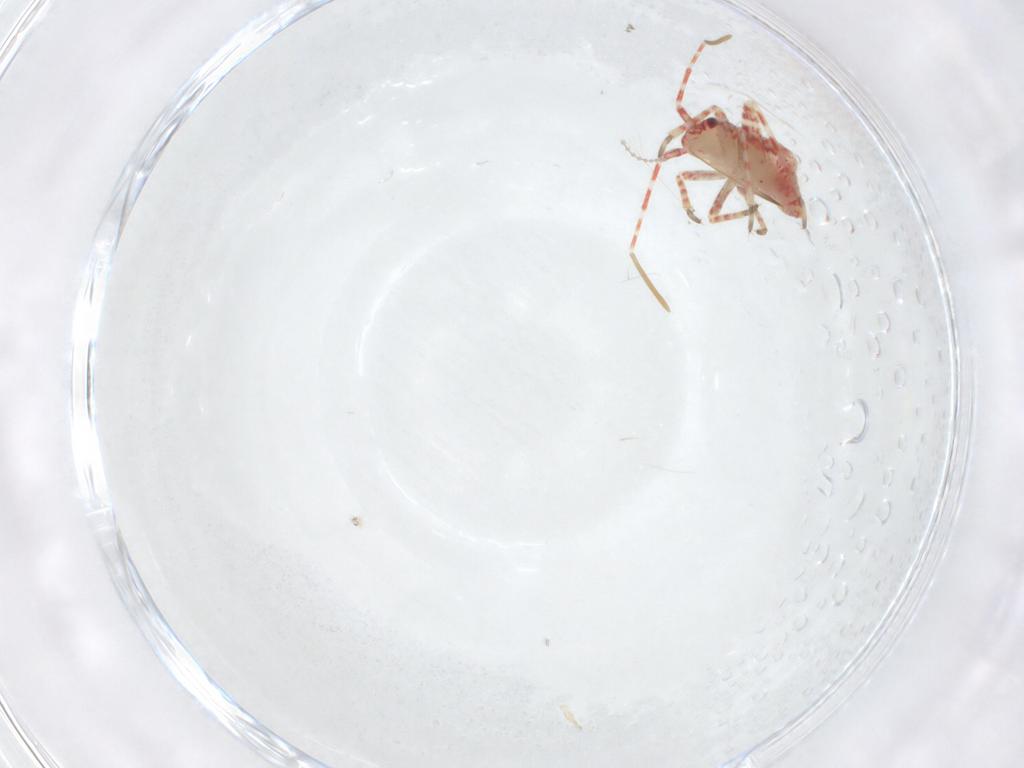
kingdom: Animalia
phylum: Arthropoda
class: Insecta
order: Hemiptera
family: Miridae
